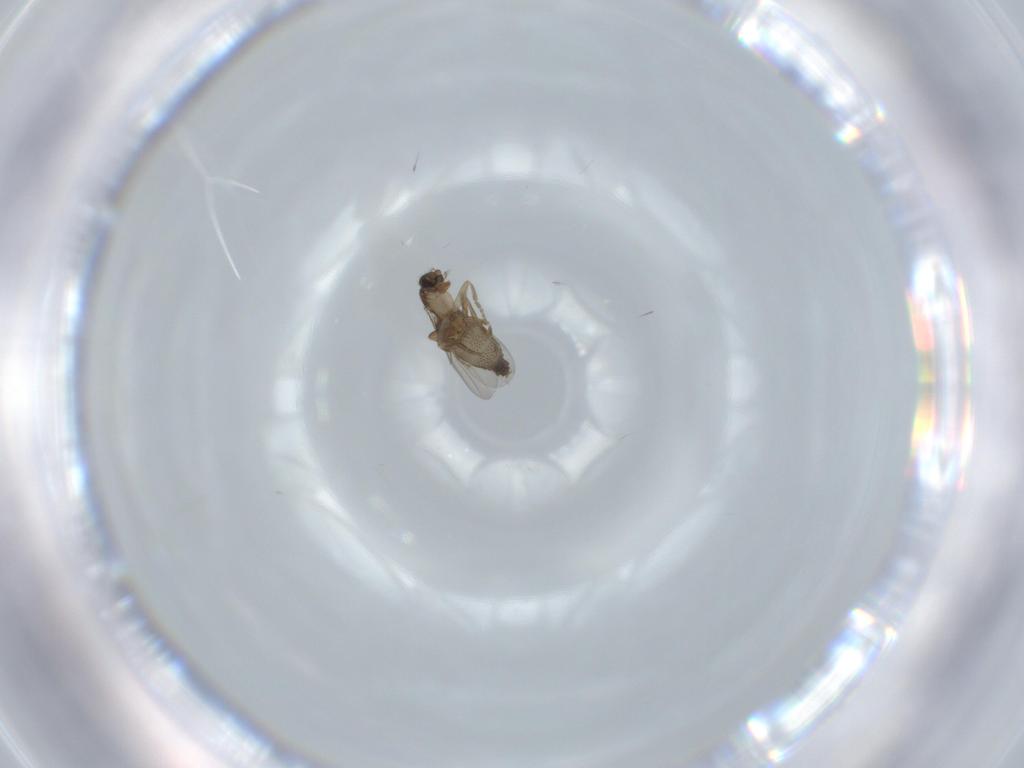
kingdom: Animalia
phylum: Arthropoda
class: Insecta
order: Diptera
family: Phoridae
